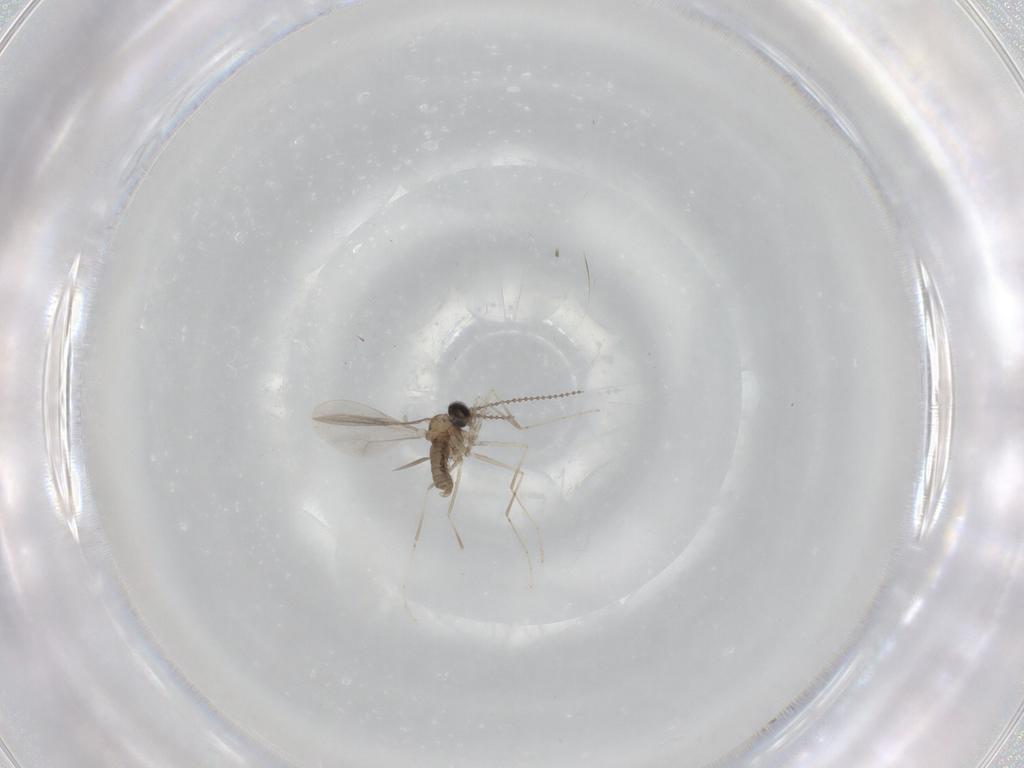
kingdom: Animalia
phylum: Arthropoda
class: Insecta
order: Diptera
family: Cecidomyiidae
